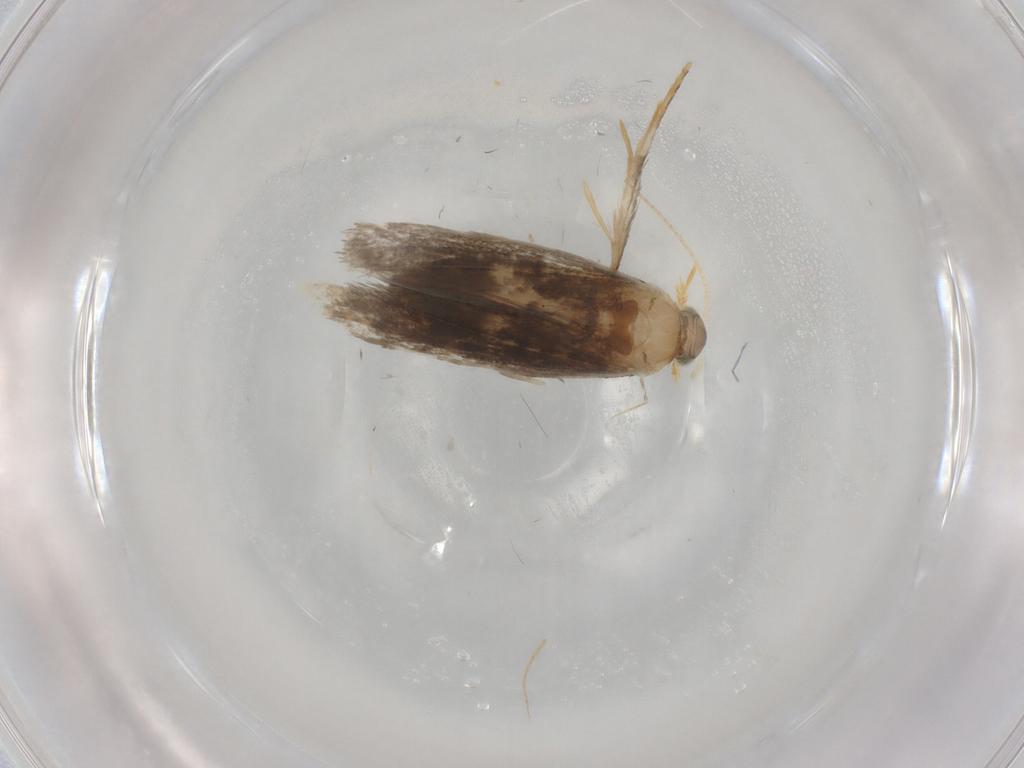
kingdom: Animalia
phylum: Arthropoda
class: Insecta
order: Lepidoptera
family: Dryadaulidae
